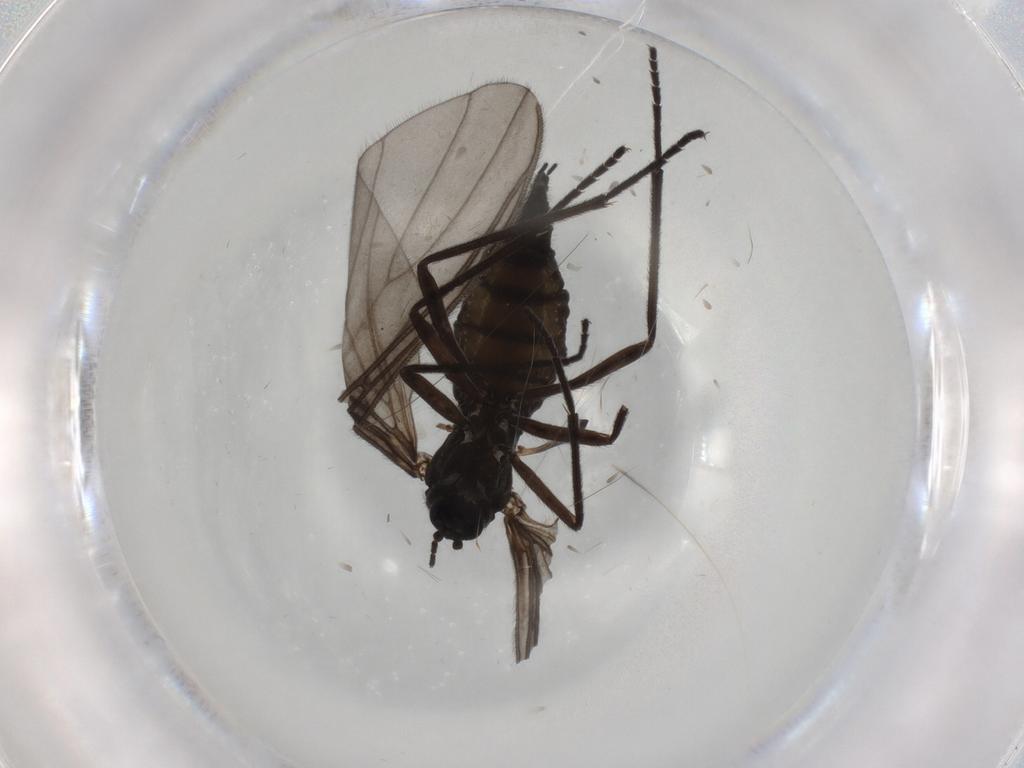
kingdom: Animalia
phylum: Arthropoda
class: Insecta
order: Diptera
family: Sciaridae
